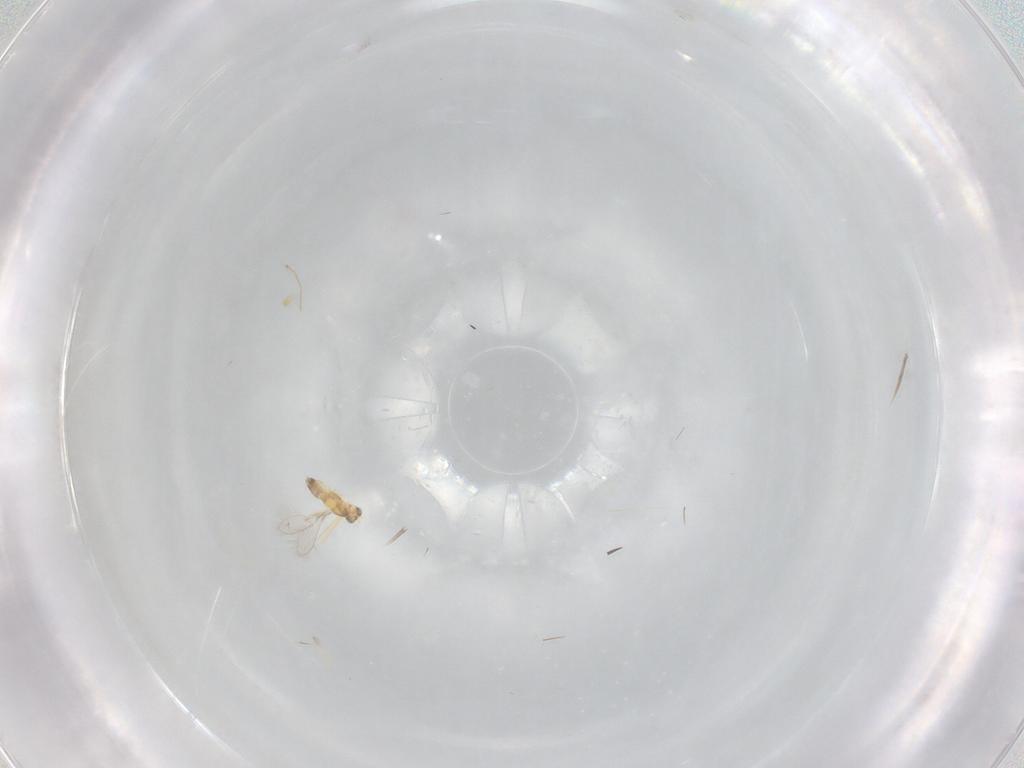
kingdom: Animalia
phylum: Arthropoda
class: Insecta
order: Diptera
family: Cecidomyiidae
